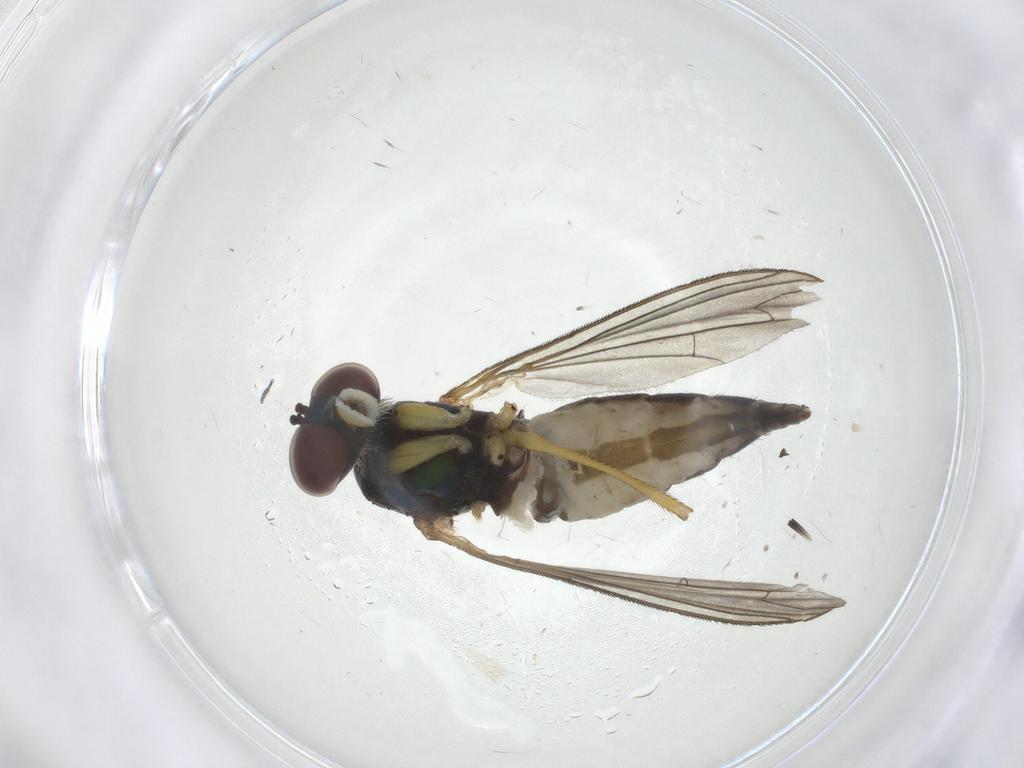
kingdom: Animalia
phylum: Arthropoda
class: Insecta
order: Diptera
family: Dolichopodidae
